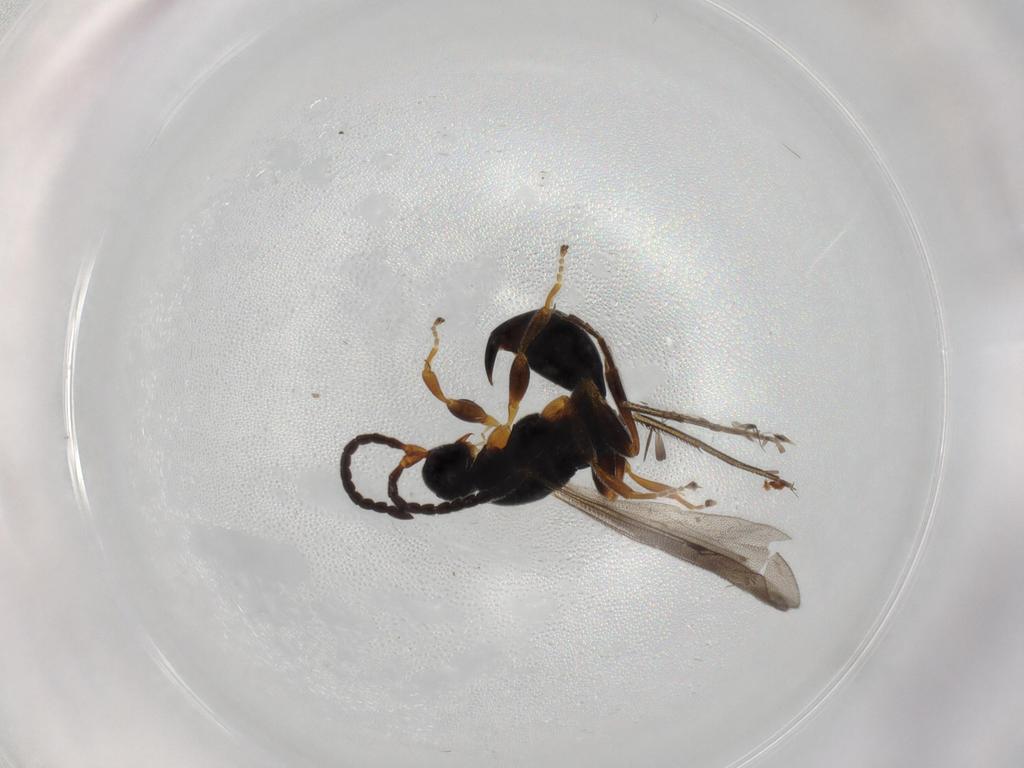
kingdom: Animalia
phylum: Arthropoda
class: Insecta
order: Hymenoptera
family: Proctotrupidae
